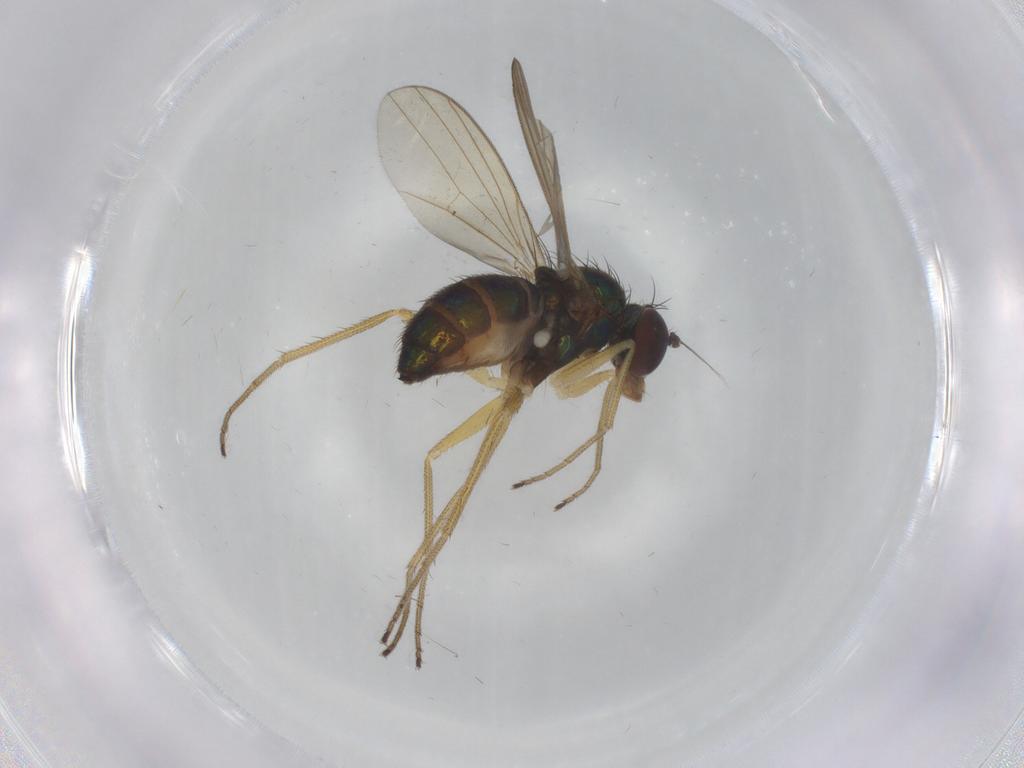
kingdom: Animalia
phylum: Arthropoda
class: Insecta
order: Diptera
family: Dolichopodidae
